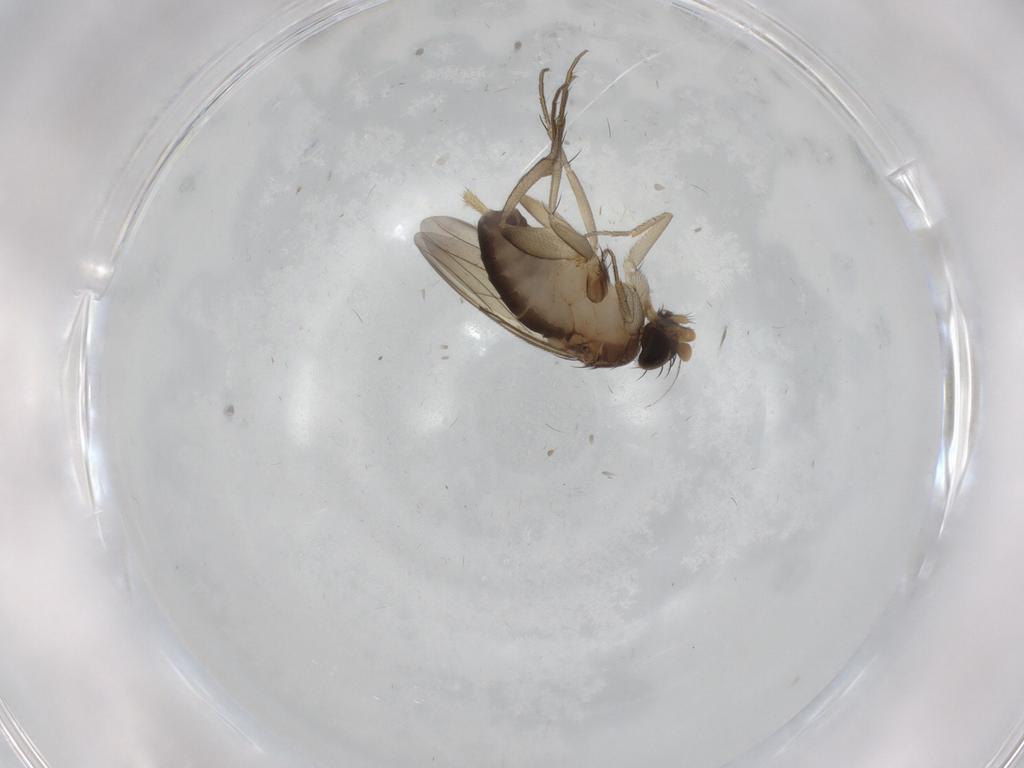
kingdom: Animalia
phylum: Arthropoda
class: Insecta
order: Diptera
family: Phoridae
